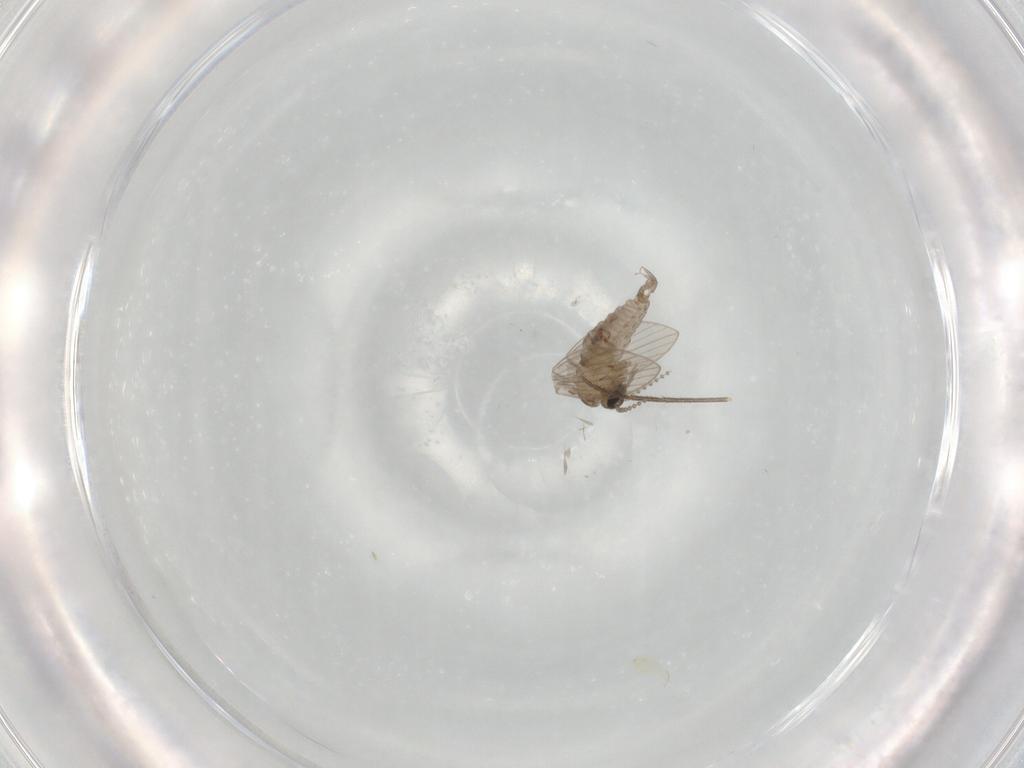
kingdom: Animalia
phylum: Arthropoda
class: Insecta
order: Diptera
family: Psychodidae
